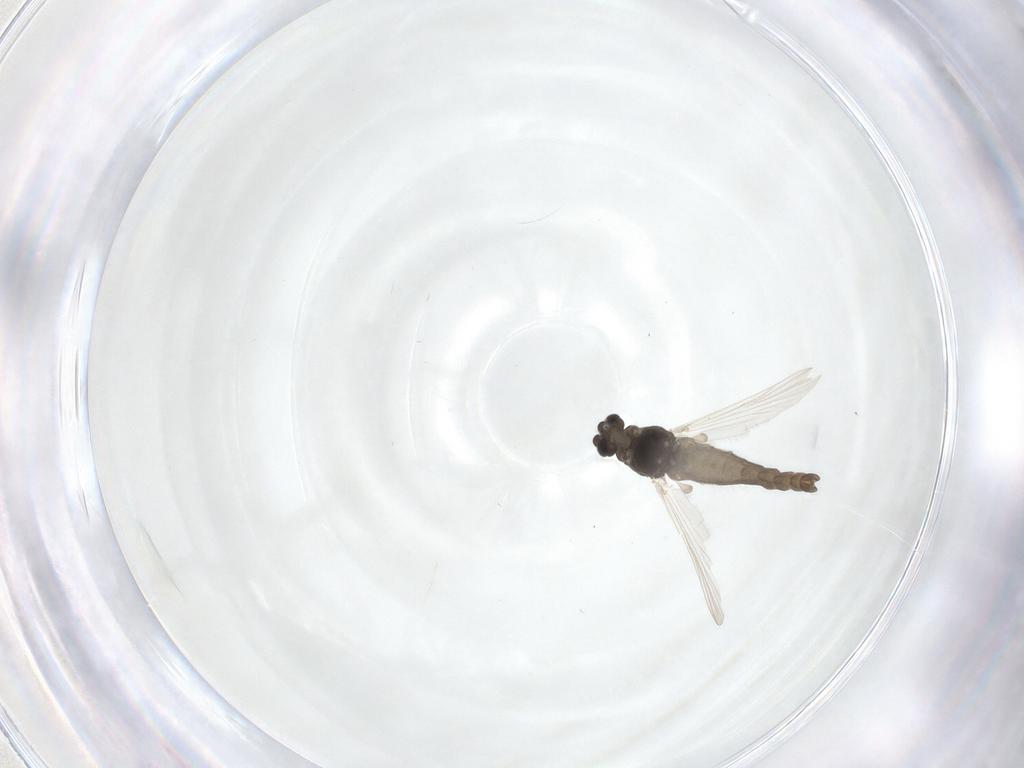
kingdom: Animalia
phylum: Arthropoda
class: Insecta
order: Diptera
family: Chironomidae
